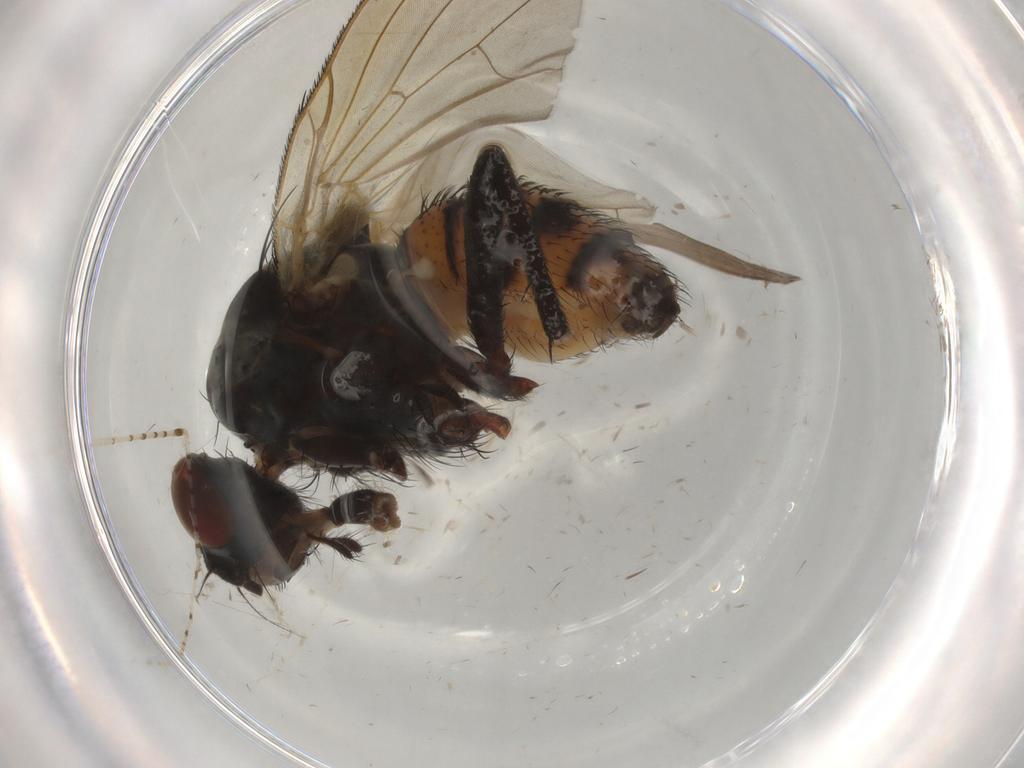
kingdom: Animalia
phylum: Arthropoda
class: Insecta
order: Diptera
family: Anthomyiidae
